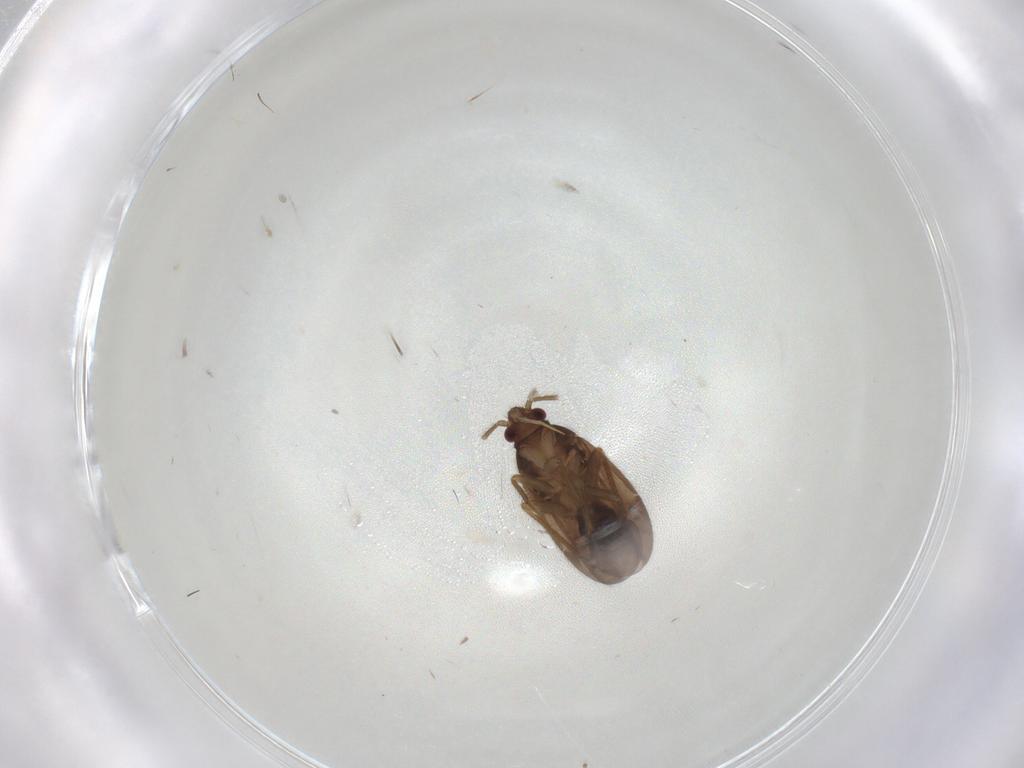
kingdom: Animalia
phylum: Arthropoda
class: Insecta
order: Hemiptera
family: Ceratocombidae
